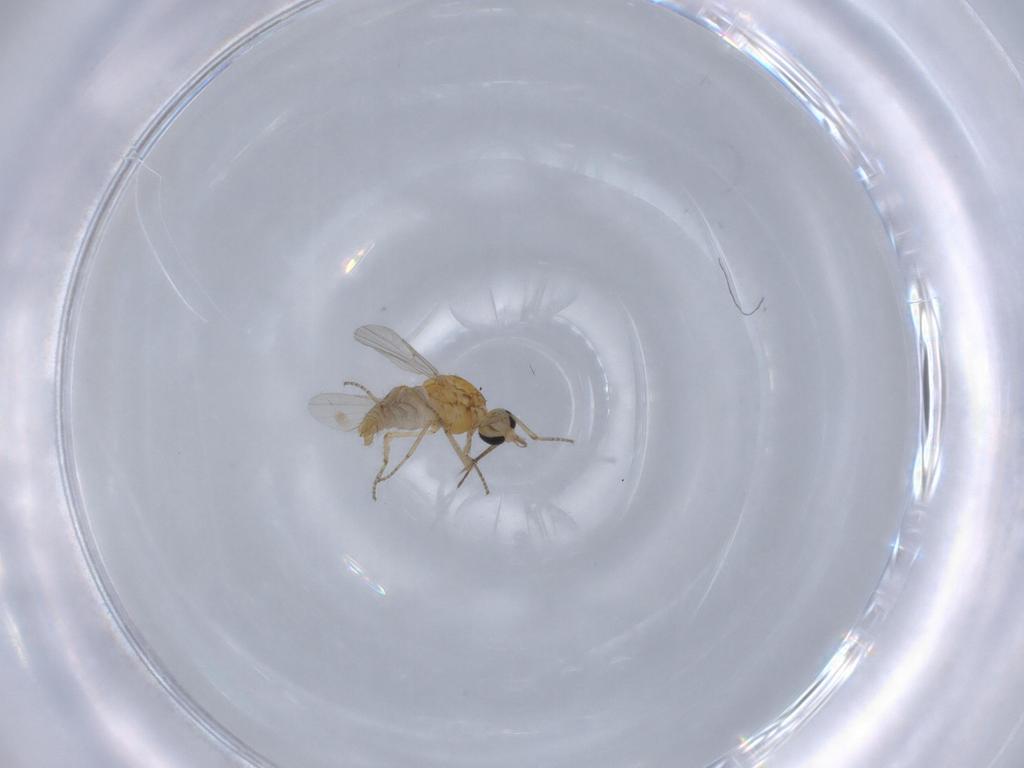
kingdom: Animalia
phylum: Arthropoda
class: Insecta
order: Diptera
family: Ceratopogonidae
